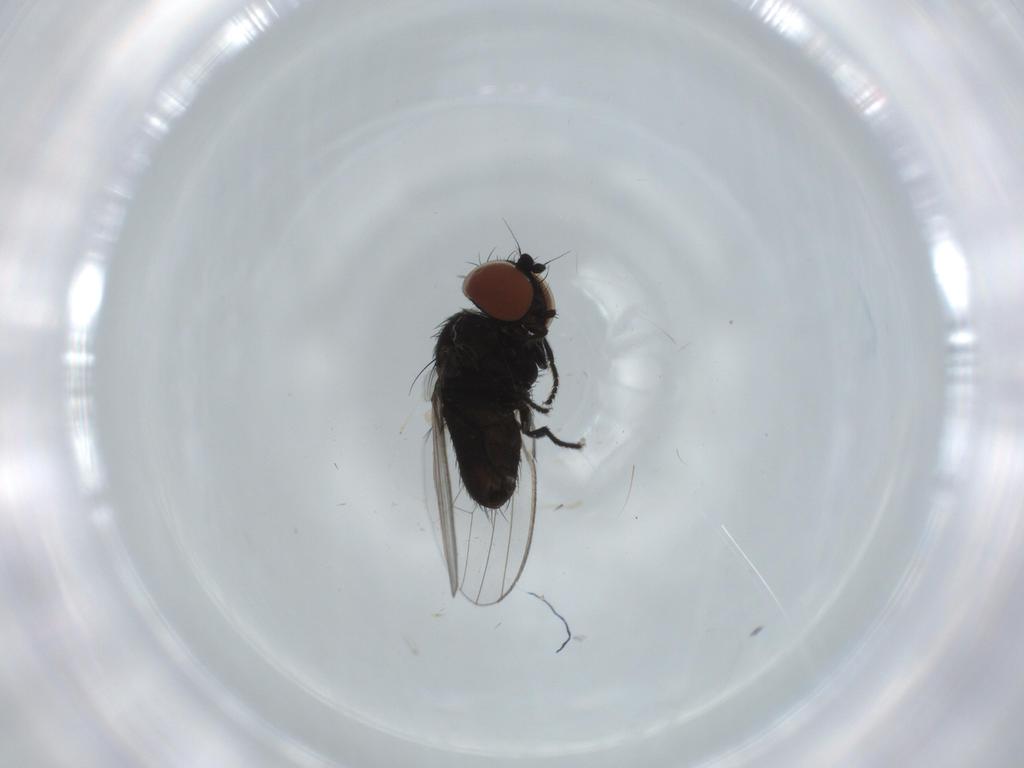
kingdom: Animalia
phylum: Arthropoda
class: Insecta
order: Diptera
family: Cecidomyiidae
